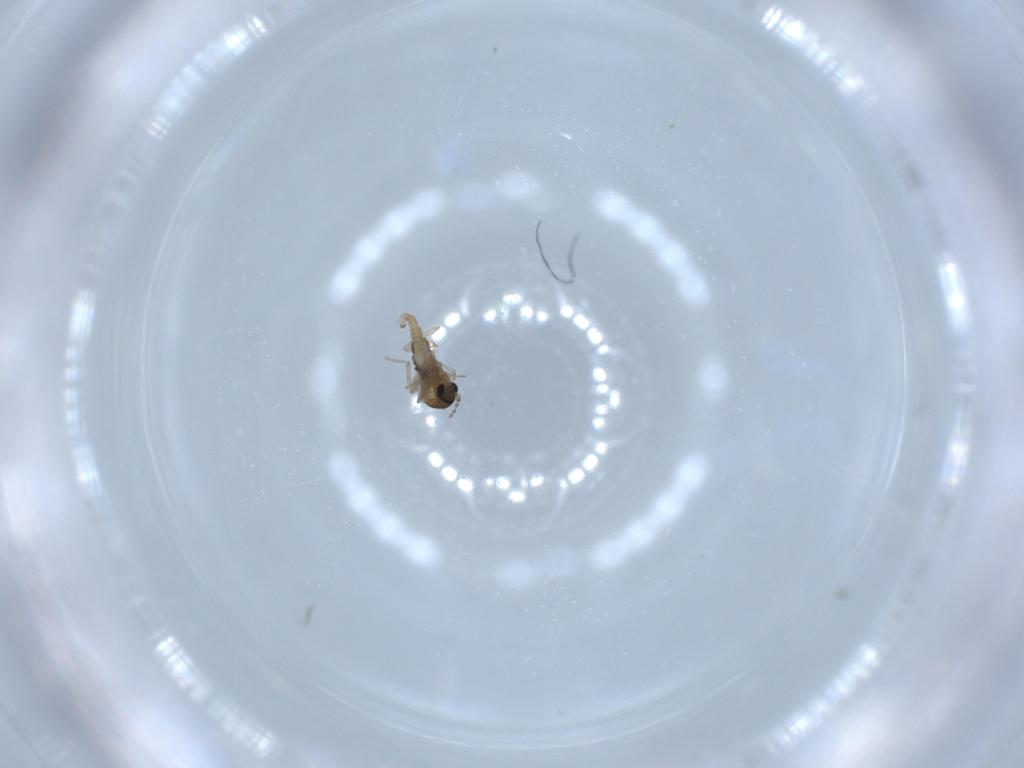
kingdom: Animalia
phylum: Arthropoda
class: Insecta
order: Diptera
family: Cecidomyiidae
